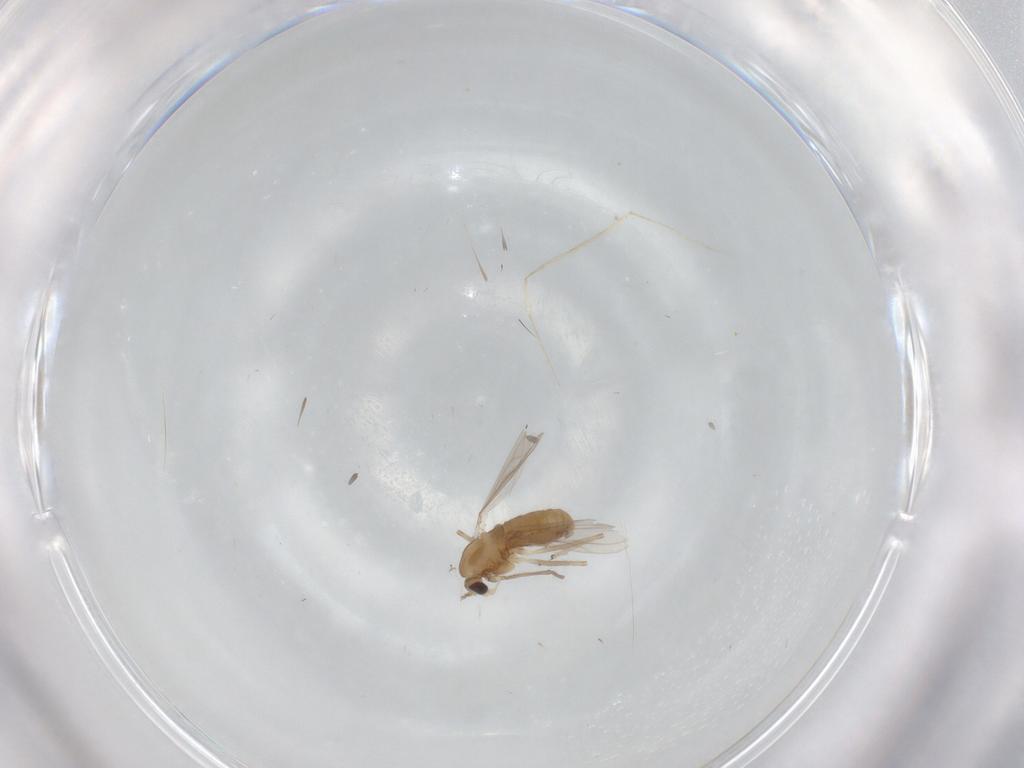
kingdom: Animalia
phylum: Arthropoda
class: Insecta
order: Diptera
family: Chironomidae
